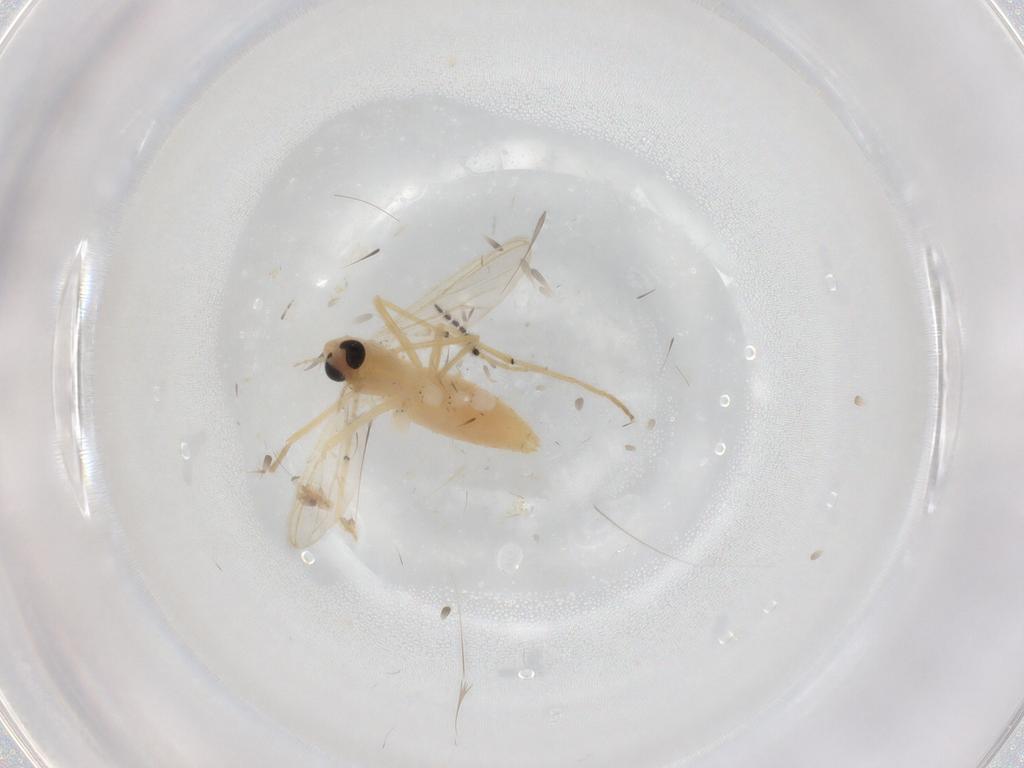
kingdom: Animalia
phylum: Arthropoda
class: Insecta
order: Diptera
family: Chironomidae
